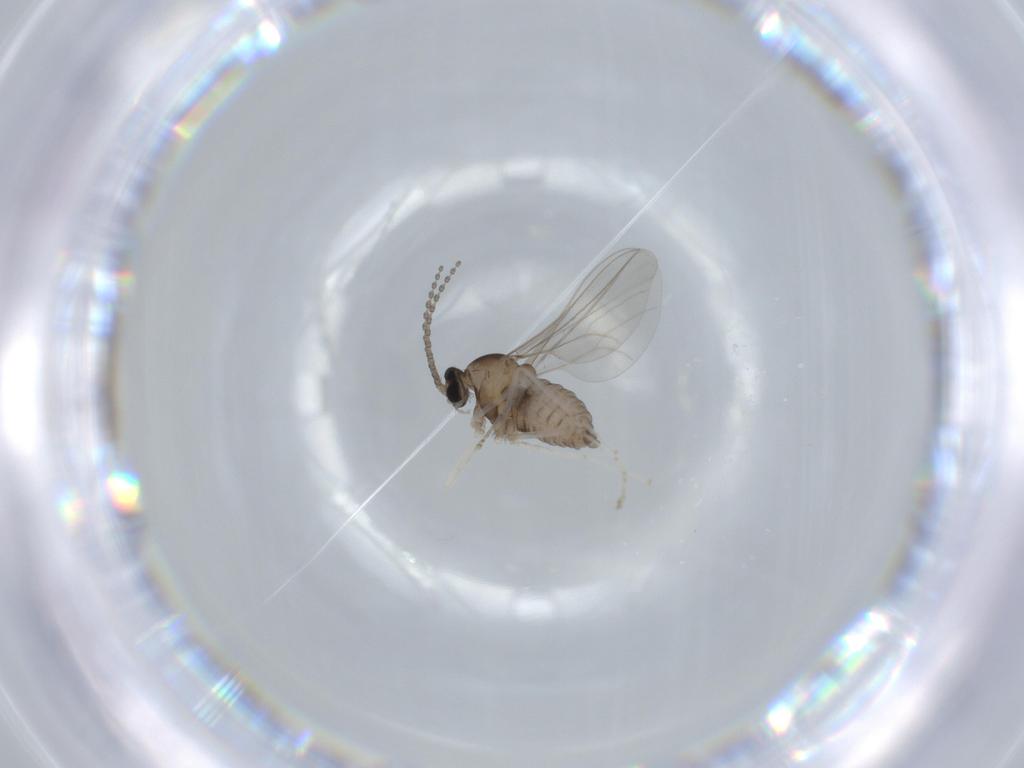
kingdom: Animalia
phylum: Arthropoda
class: Insecta
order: Diptera
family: Cecidomyiidae
